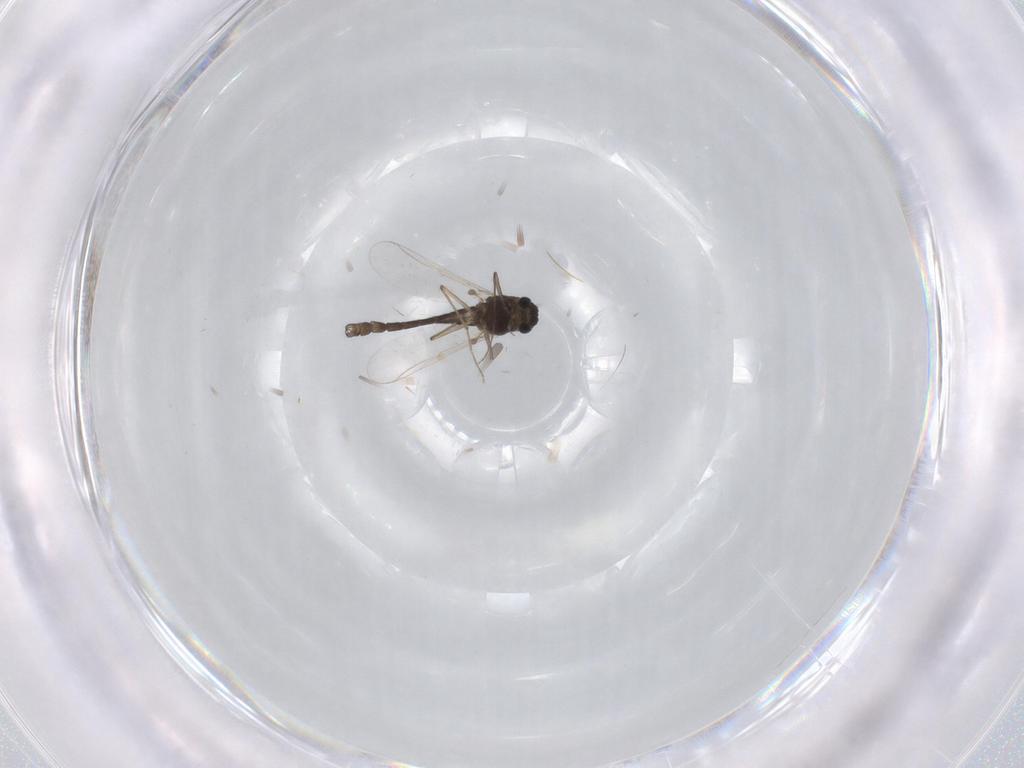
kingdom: Animalia
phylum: Arthropoda
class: Insecta
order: Diptera
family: Chironomidae
